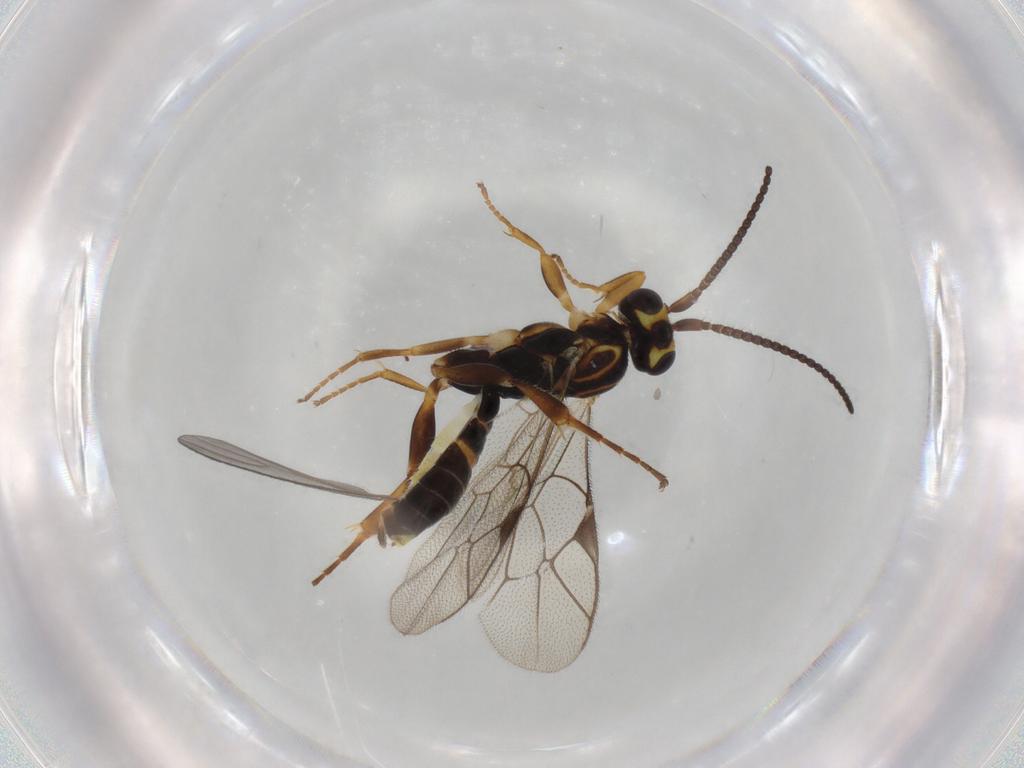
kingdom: Animalia
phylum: Arthropoda
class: Insecta
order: Hymenoptera
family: Ichneumonidae
